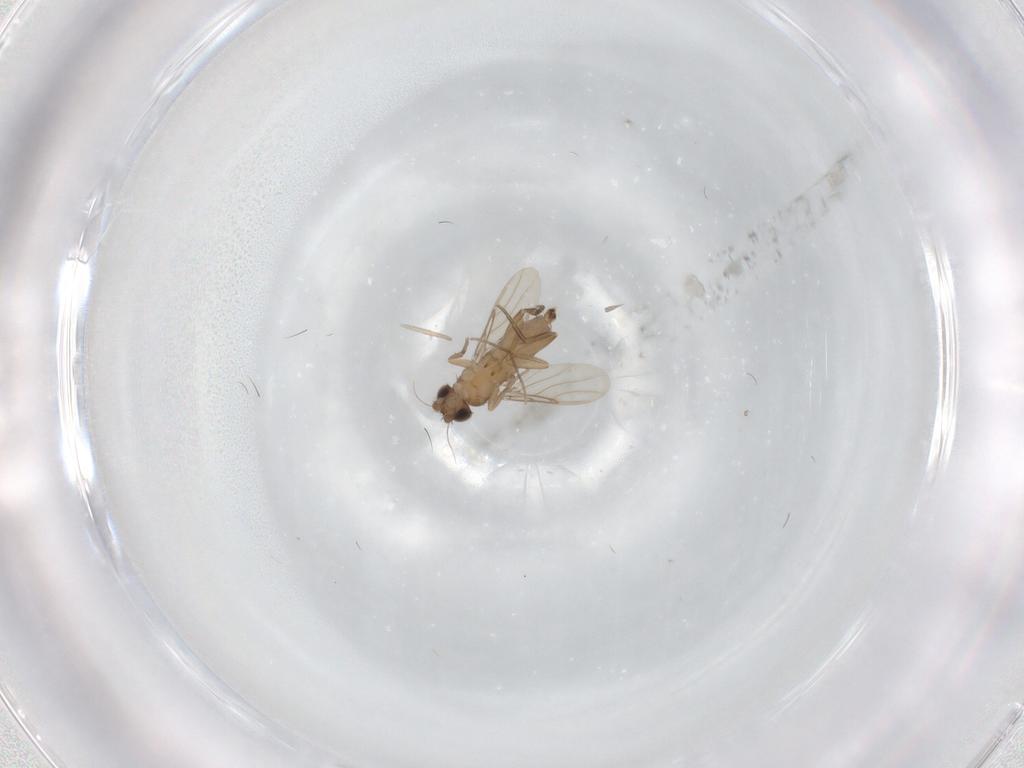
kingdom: Animalia
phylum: Arthropoda
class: Insecta
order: Diptera
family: Phoridae
